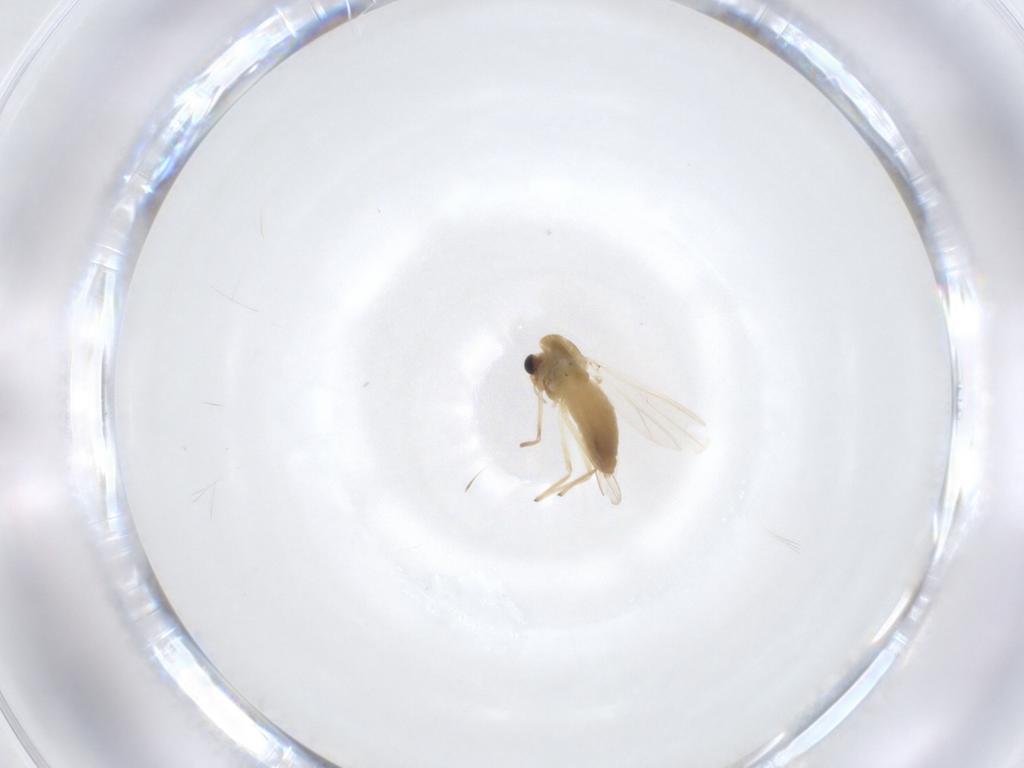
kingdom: Animalia
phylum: Arthropoda
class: Insecta
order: Diptera
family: Chironomidae
